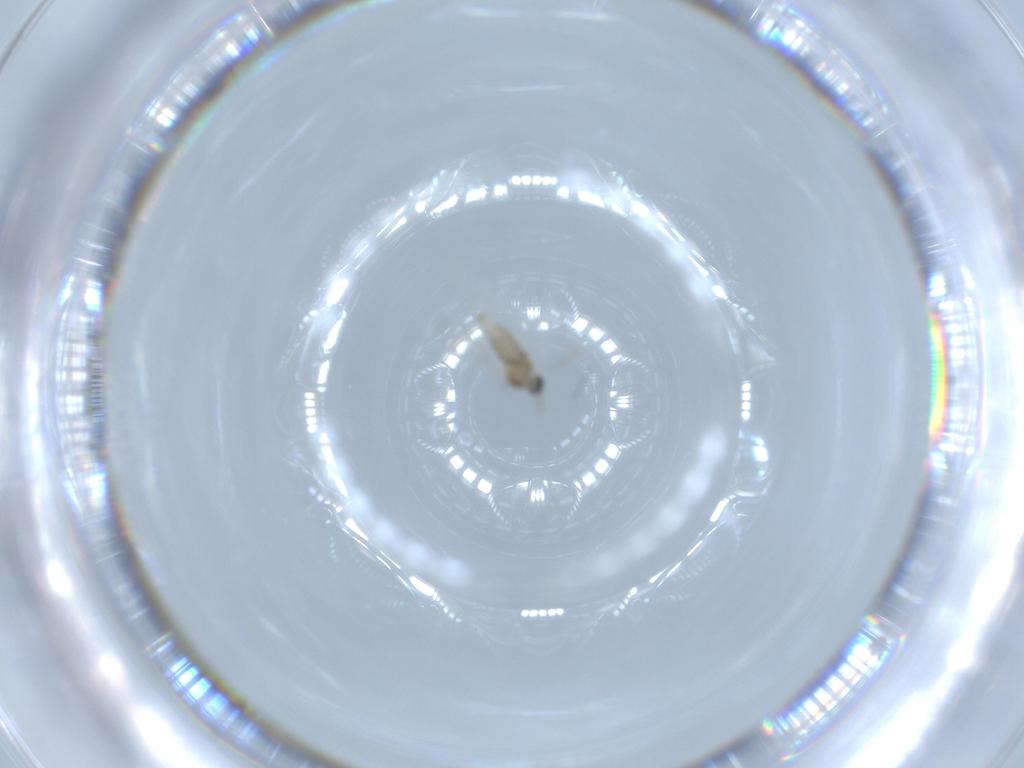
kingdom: Animalia
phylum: Arthropoda
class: Insecta
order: Diptera
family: Cecidomyiidae
